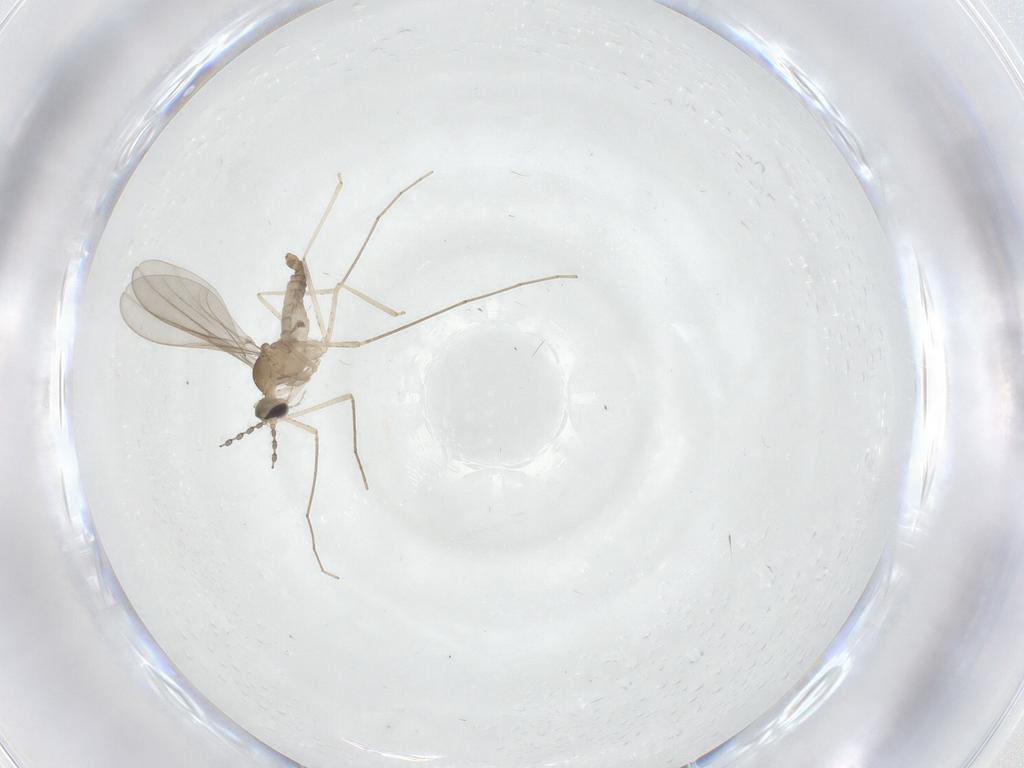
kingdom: Animalia
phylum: Arthropoda
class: Insecta
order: Diptera
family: Cecidomyiidae
